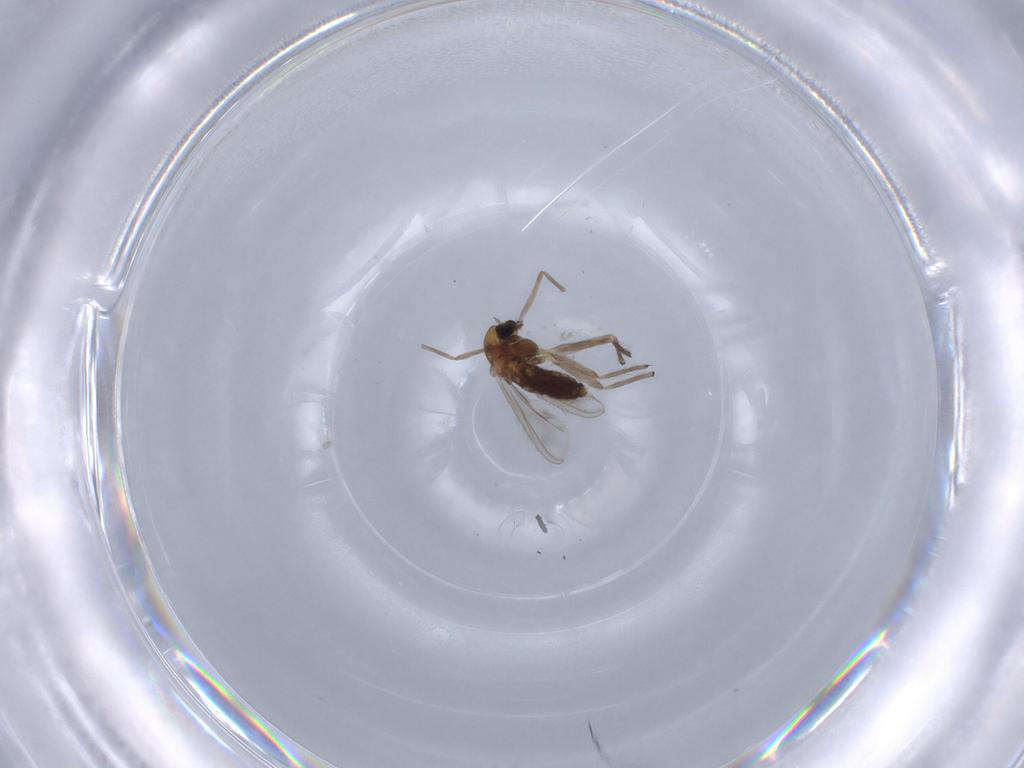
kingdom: Animalia
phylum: Arthropoda
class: Insecta
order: Diptera
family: Chironomidae
